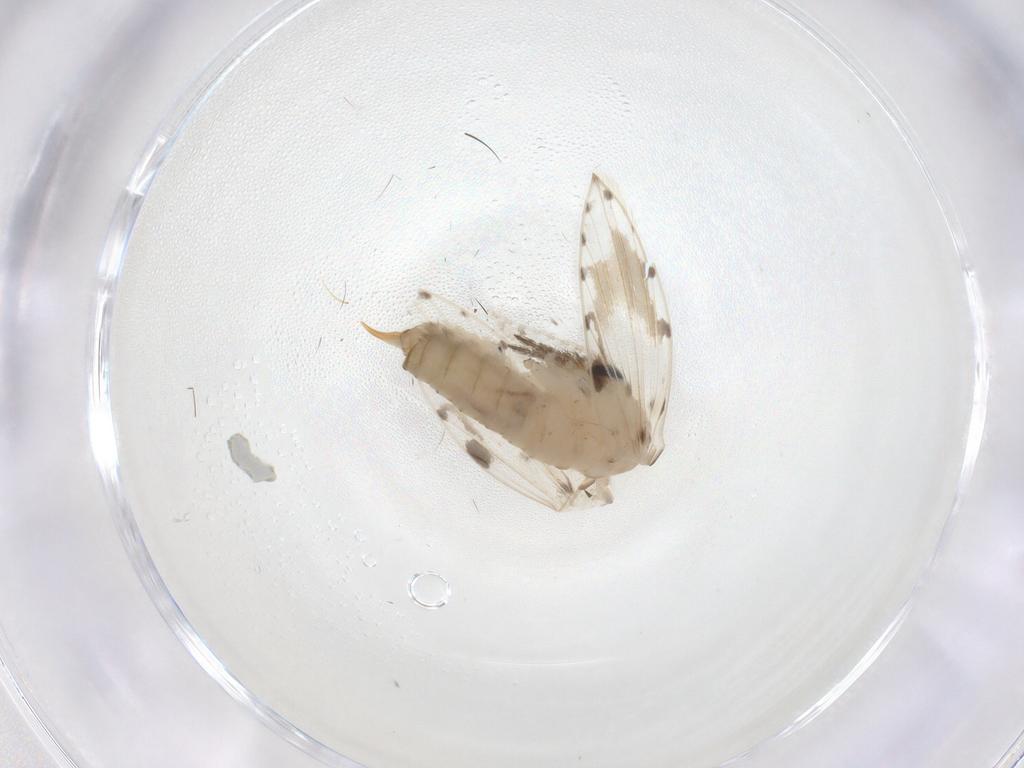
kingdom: Animalia
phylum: Arthropoda
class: Insecta
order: Diptera
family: Psychodidae
